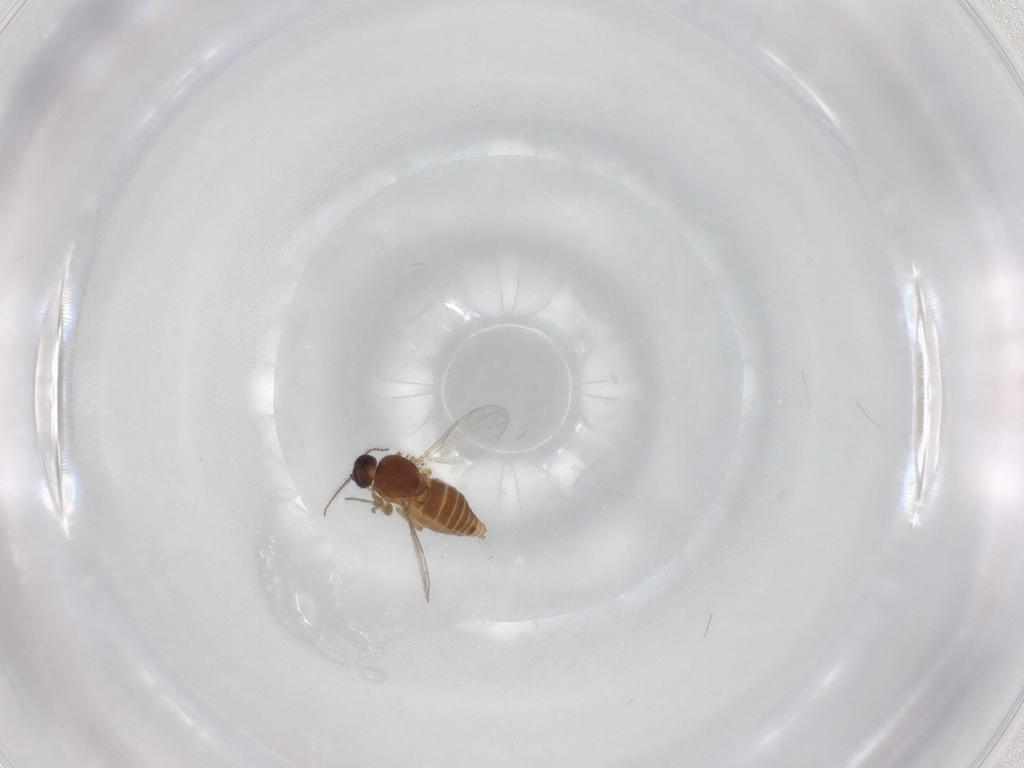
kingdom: Animalia
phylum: Arthropoda
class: Insecta
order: Diptera
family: Ceratopogonidae
